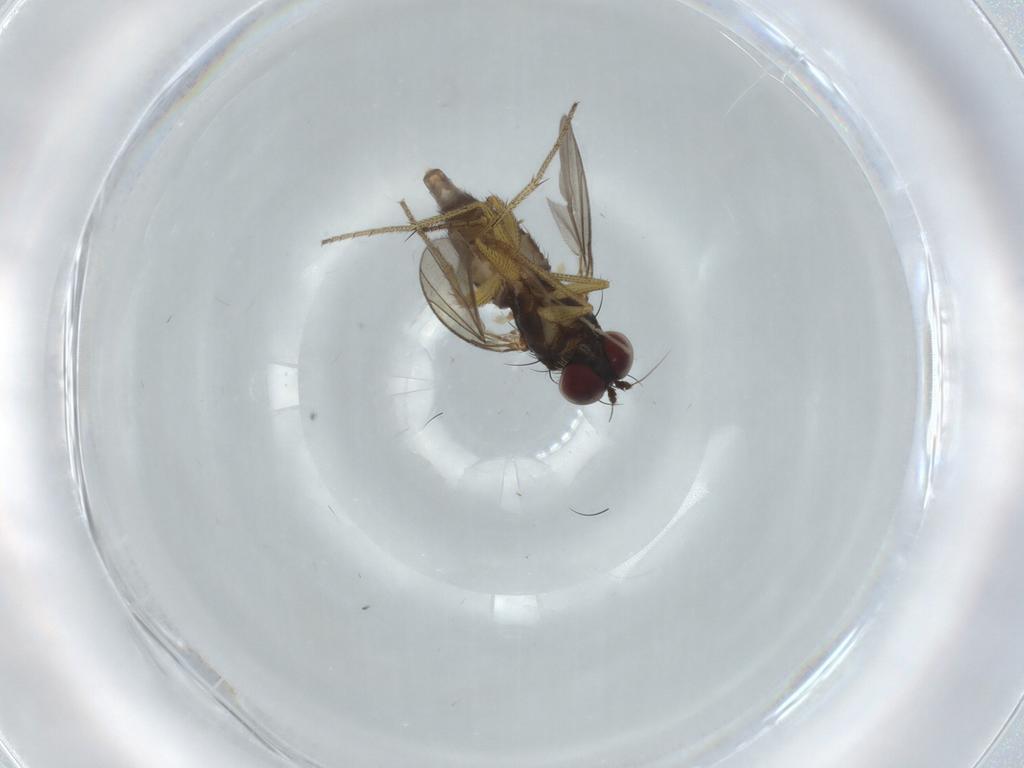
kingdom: Animalia
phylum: Arthropoda
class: Insecta
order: Diptera
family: Dolichopodidae
